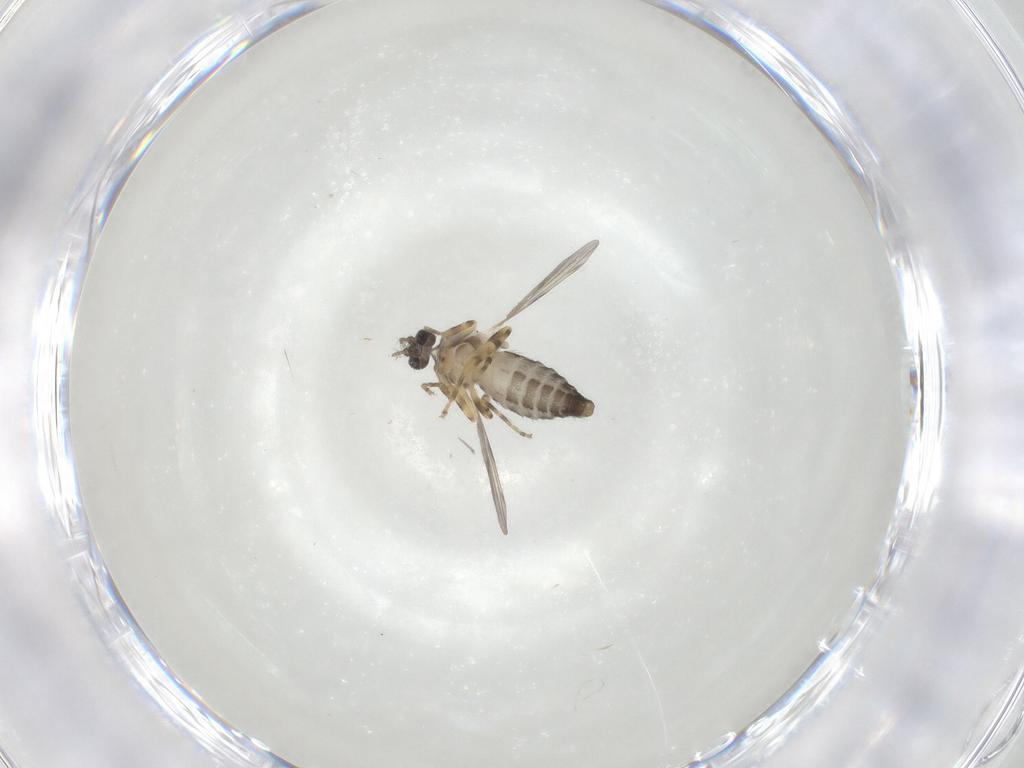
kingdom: Animalia
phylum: Arthropoda
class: Insecta
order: Diptera
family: Ceratopogonidae
